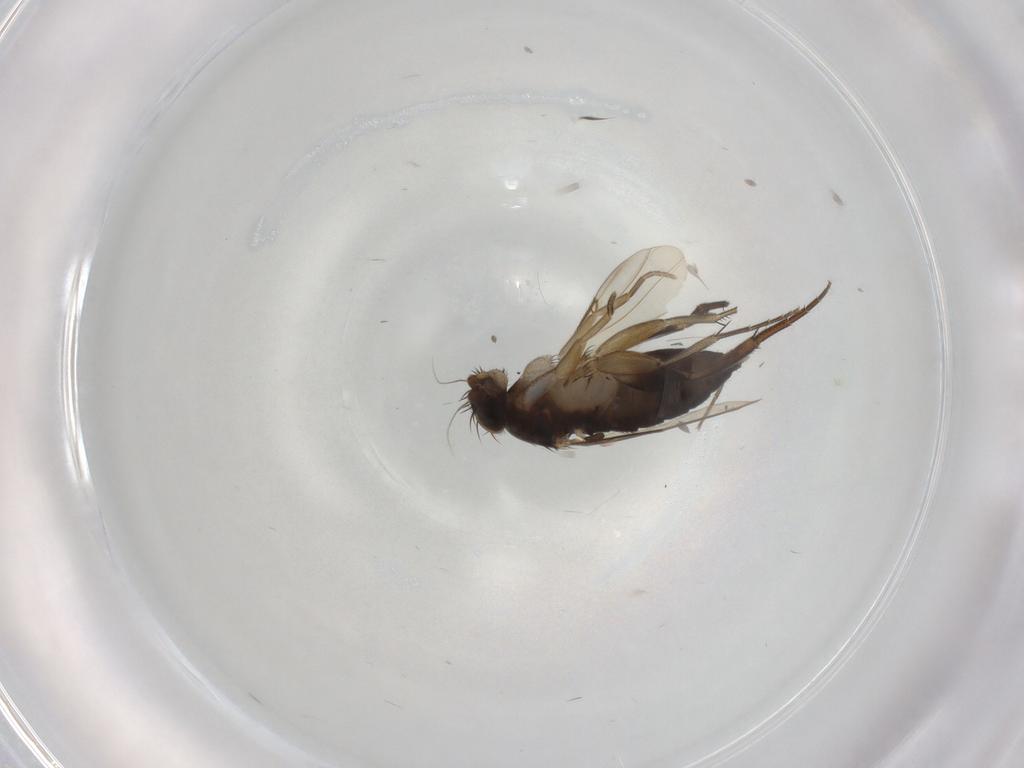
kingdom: Animalia
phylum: Arthropoda
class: Insecta
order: Diptera
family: Phoridae
